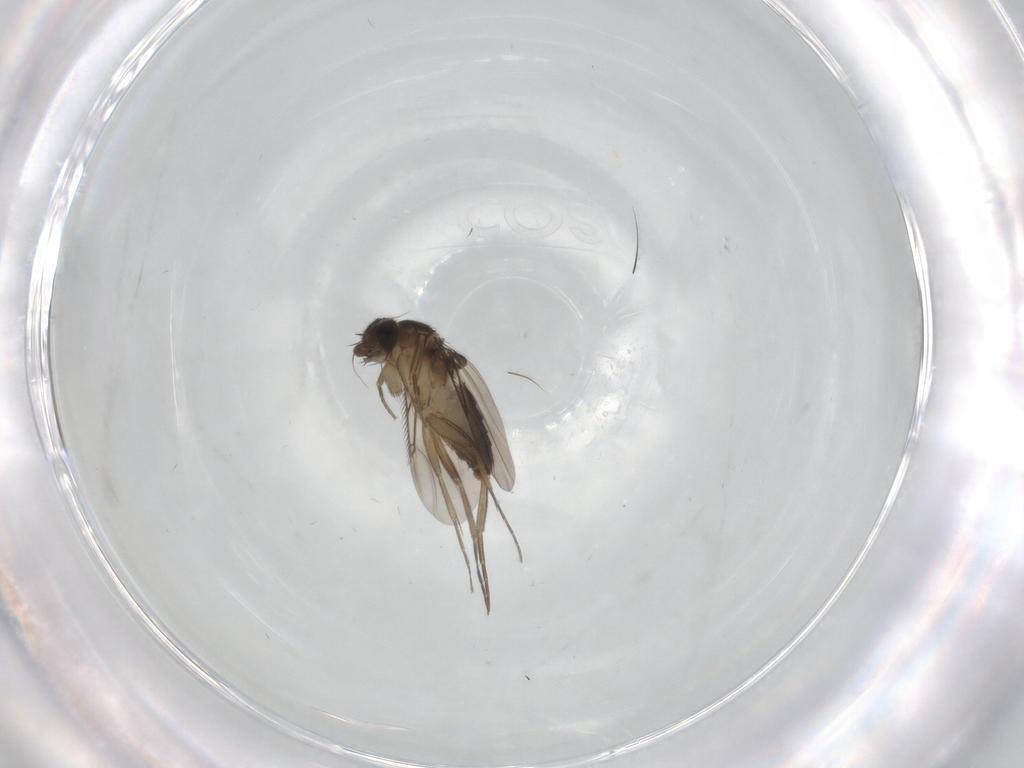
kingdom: Animalia
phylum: Arthropoda
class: Insecta
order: Diptera
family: Phoridae
